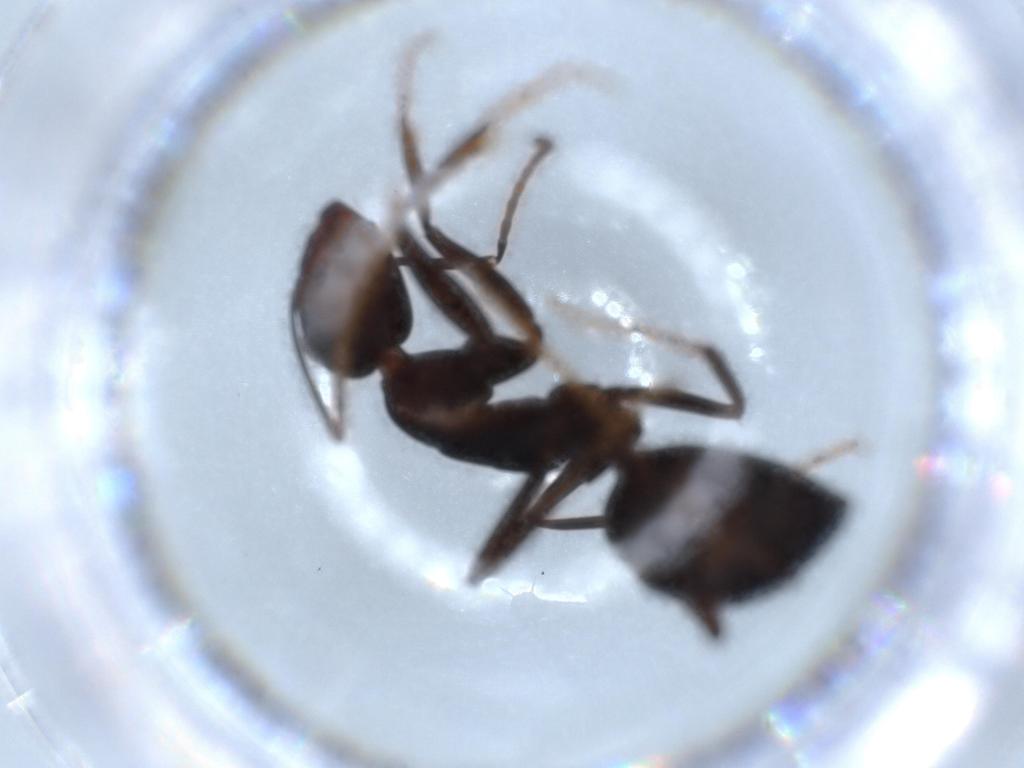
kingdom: Animalia
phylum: Arthropoda
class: Insecta
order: Hymenoptera
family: Formicidae
